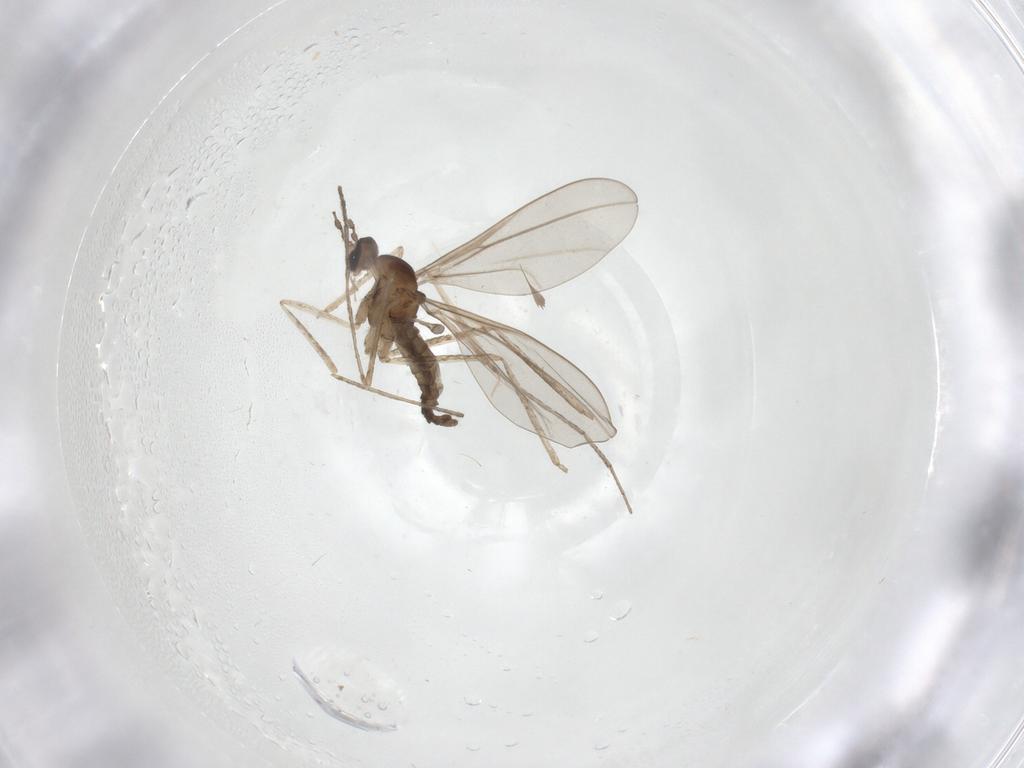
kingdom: Animalia
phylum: Arthropoda
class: Insecta
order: Diptera
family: Cecidomyiidae
